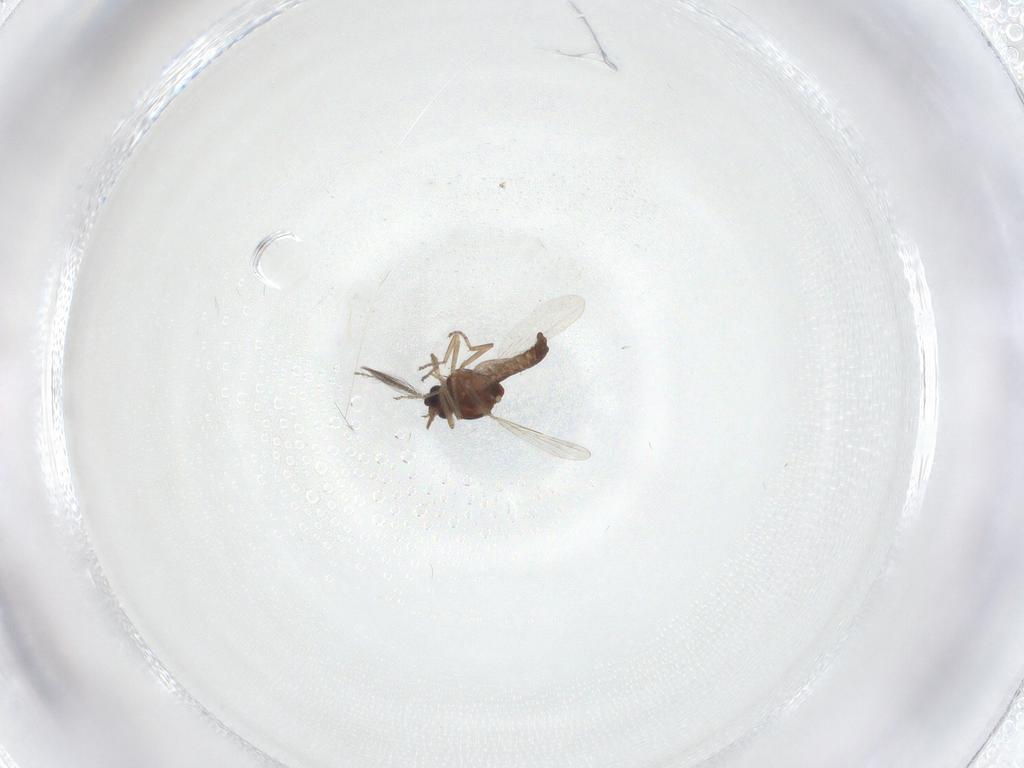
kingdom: Animalia
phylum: Arthropoda
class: Insecta
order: Diptera
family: Ceratopogonidae
